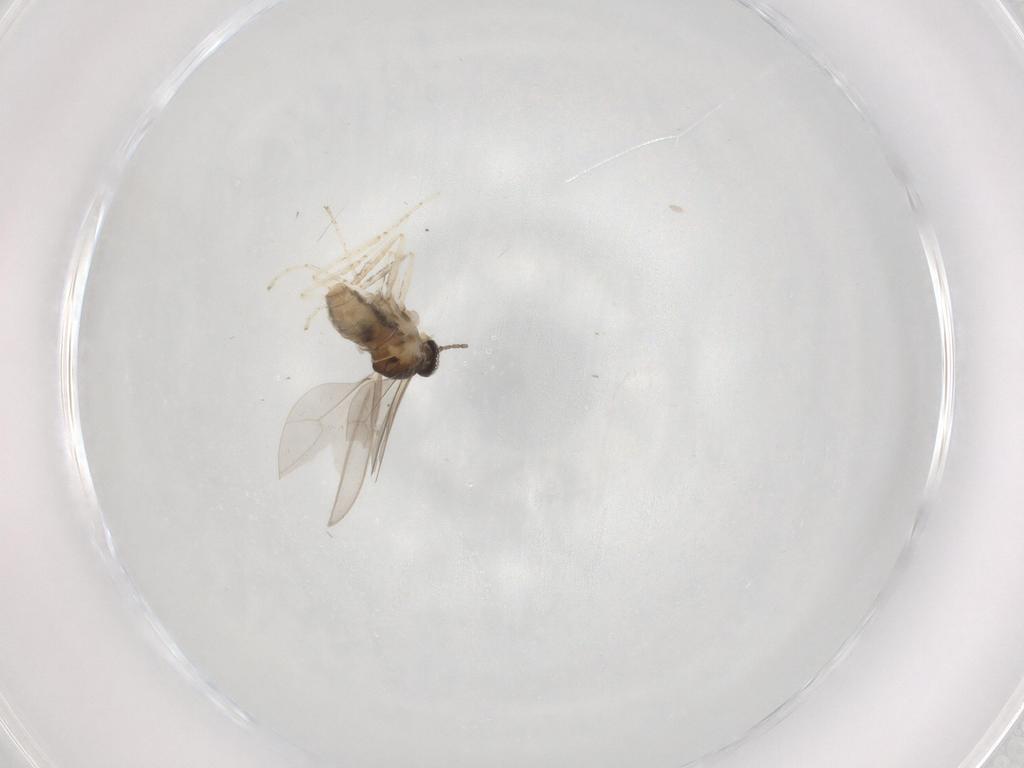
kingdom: Animalia
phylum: Arthropoda
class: Insecta
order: Diptera
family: Cecidomyiidae
